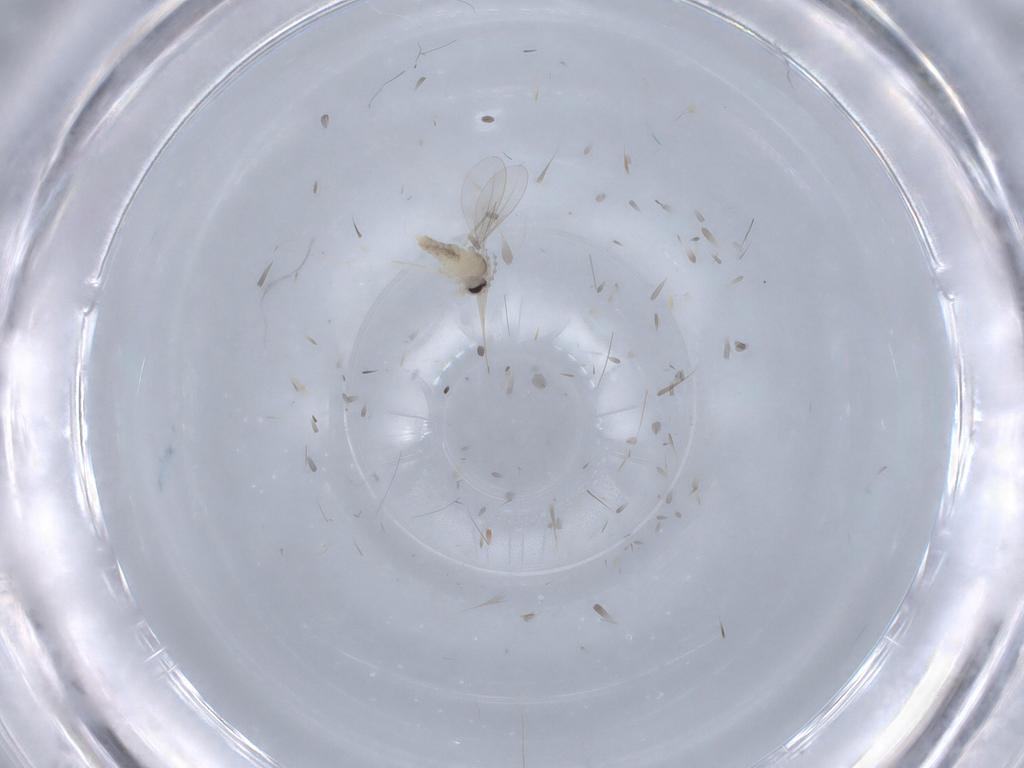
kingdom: Animalia
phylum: Arthropoda
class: Insecta
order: Diptera
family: Cecidomyiidae
